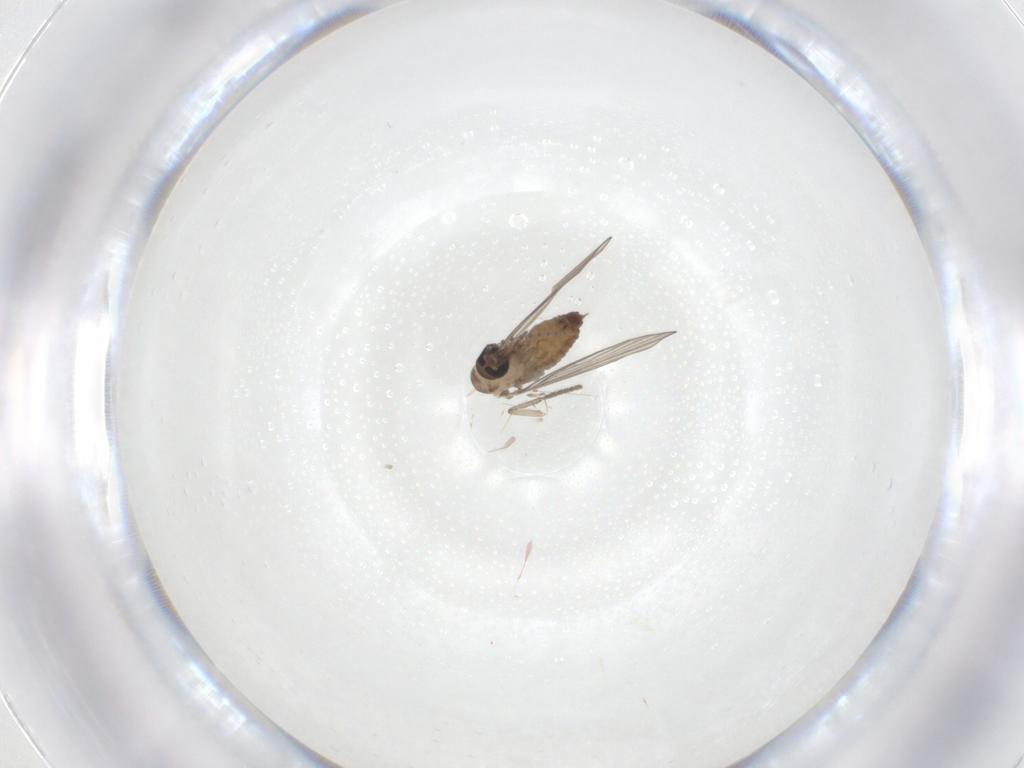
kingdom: Animalia
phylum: Arthropoda
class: Insecta
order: Diptera
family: Psychodidae
